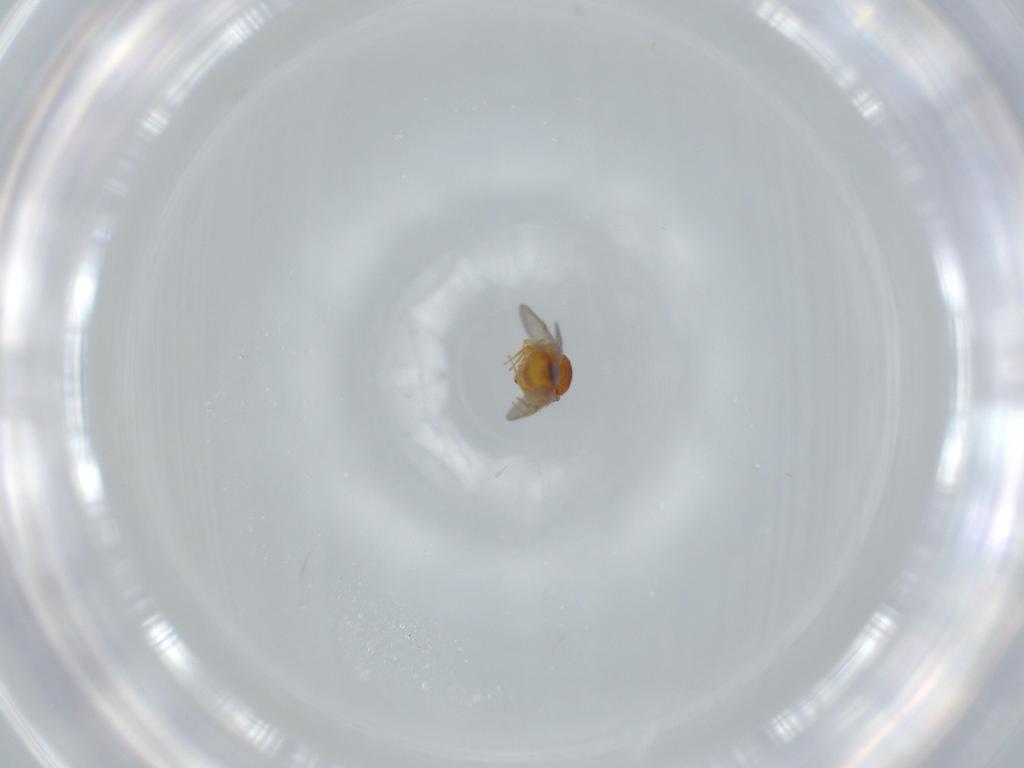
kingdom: Animalia
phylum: Arthropoda
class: Insecta
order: Hymenoptera
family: Scelionidae
